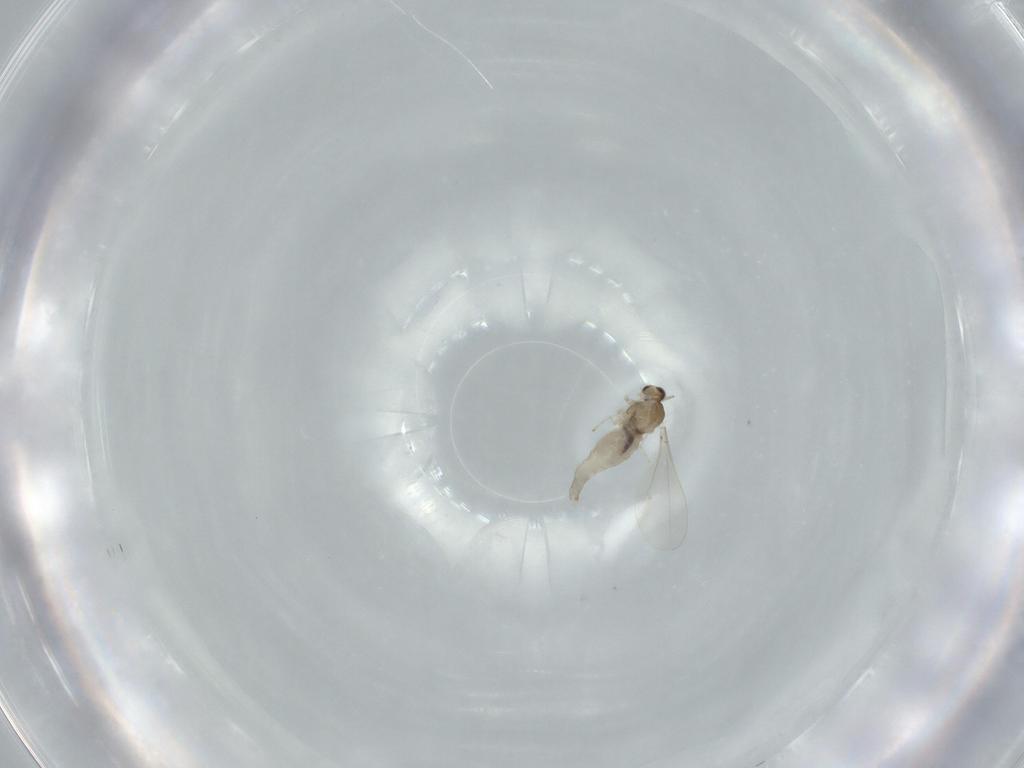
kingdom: Animalia
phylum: Arthropoda
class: Insecta
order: Diptera
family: Cecidomyiidae
